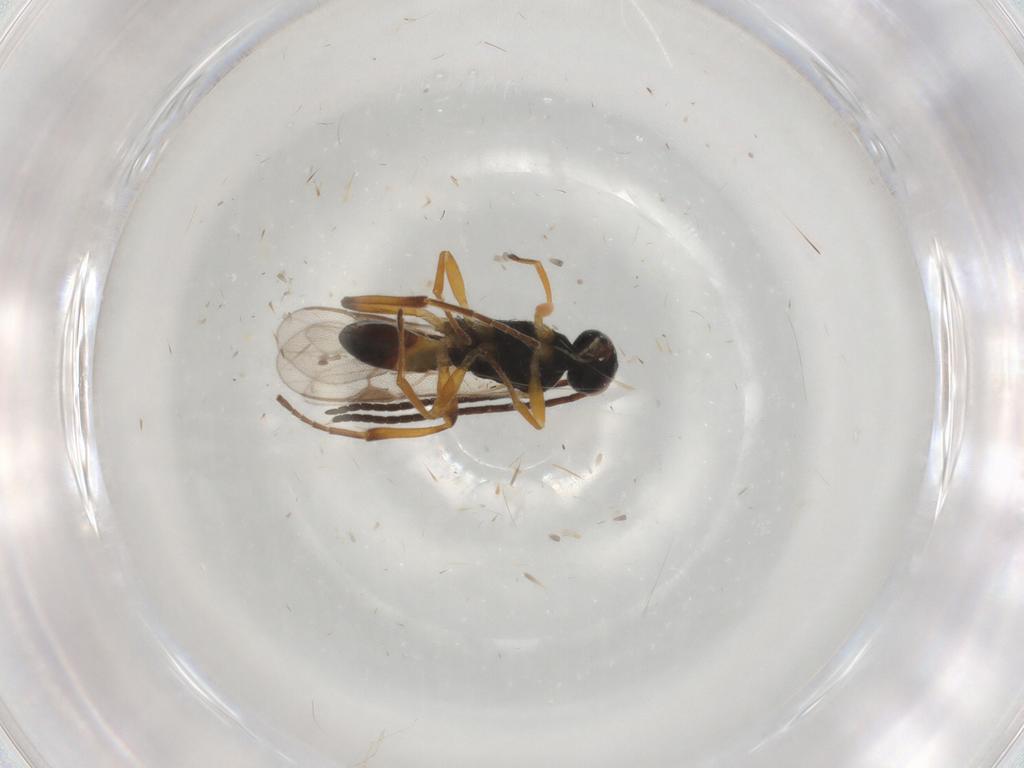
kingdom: Animalia
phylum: Arthropoda
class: Insecta
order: Hymenoptera
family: Braconidae
